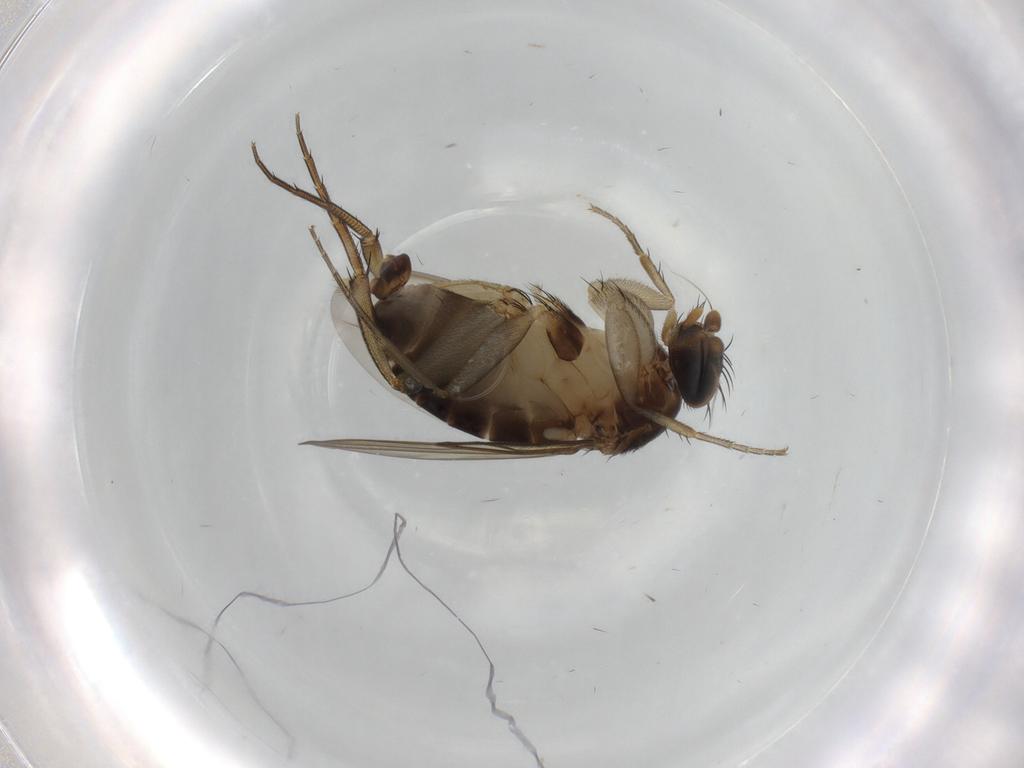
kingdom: Animalia
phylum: Arthropoda
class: Insecta
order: Diptera
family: Phoridae
